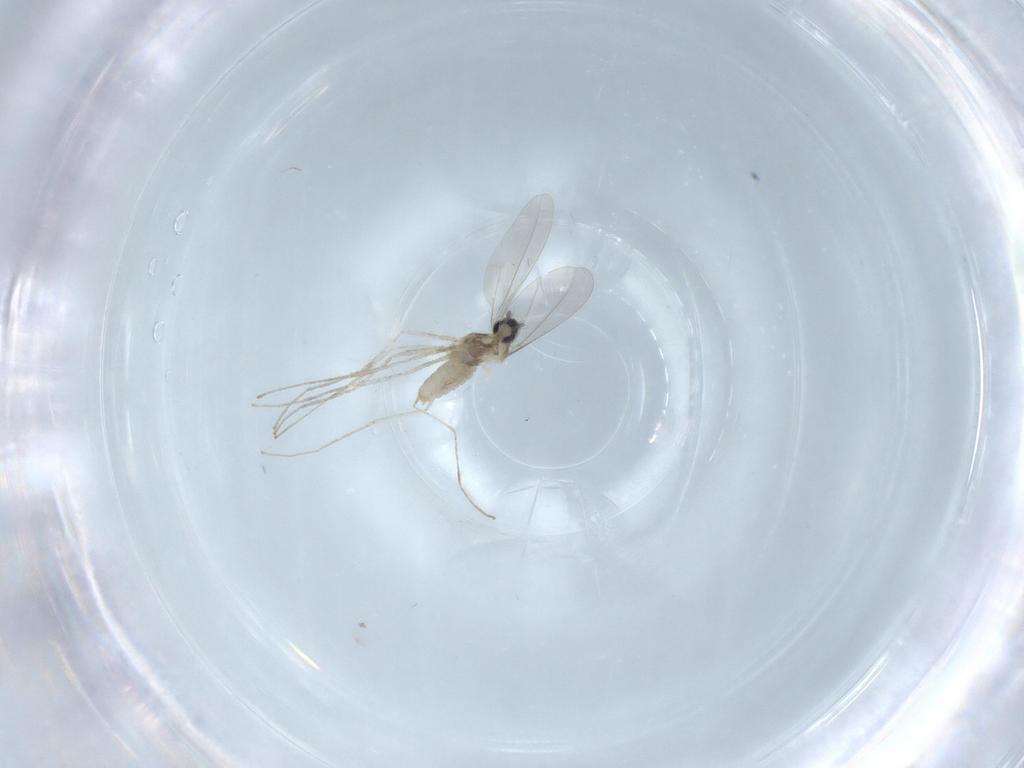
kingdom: Animalia
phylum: Arthropoda
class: Insecta
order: Diptera
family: Cecidomyiidae
